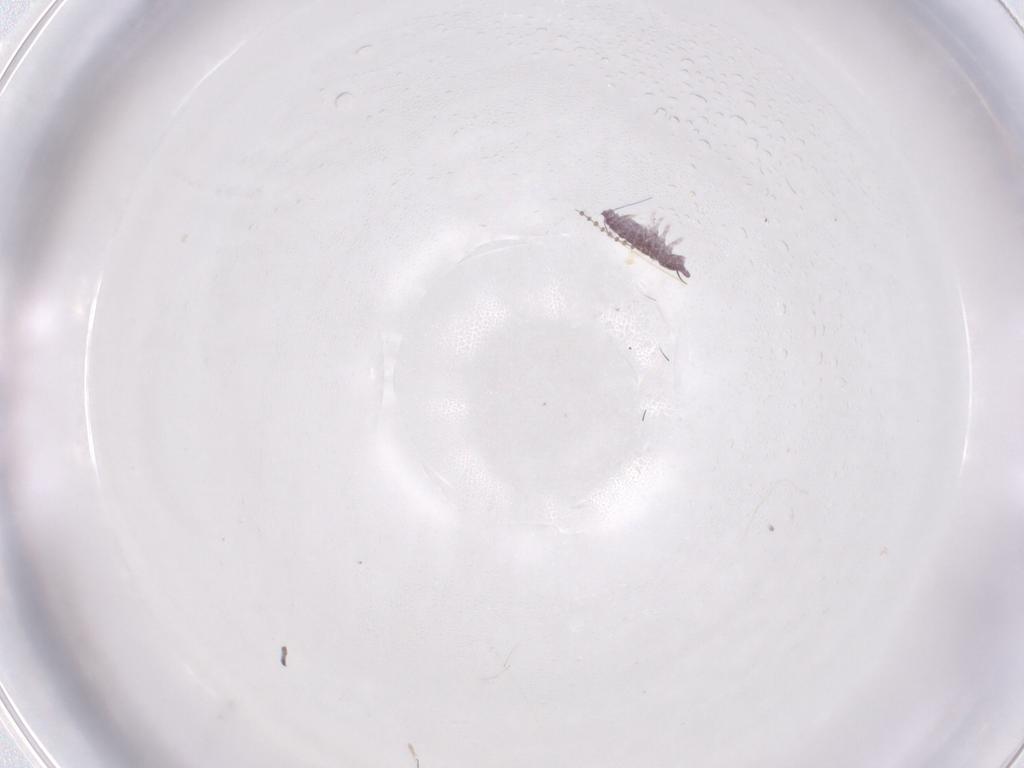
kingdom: Animalia
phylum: Arthropoda
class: Collembola
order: Poduromorpha
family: Hypogastruridae
